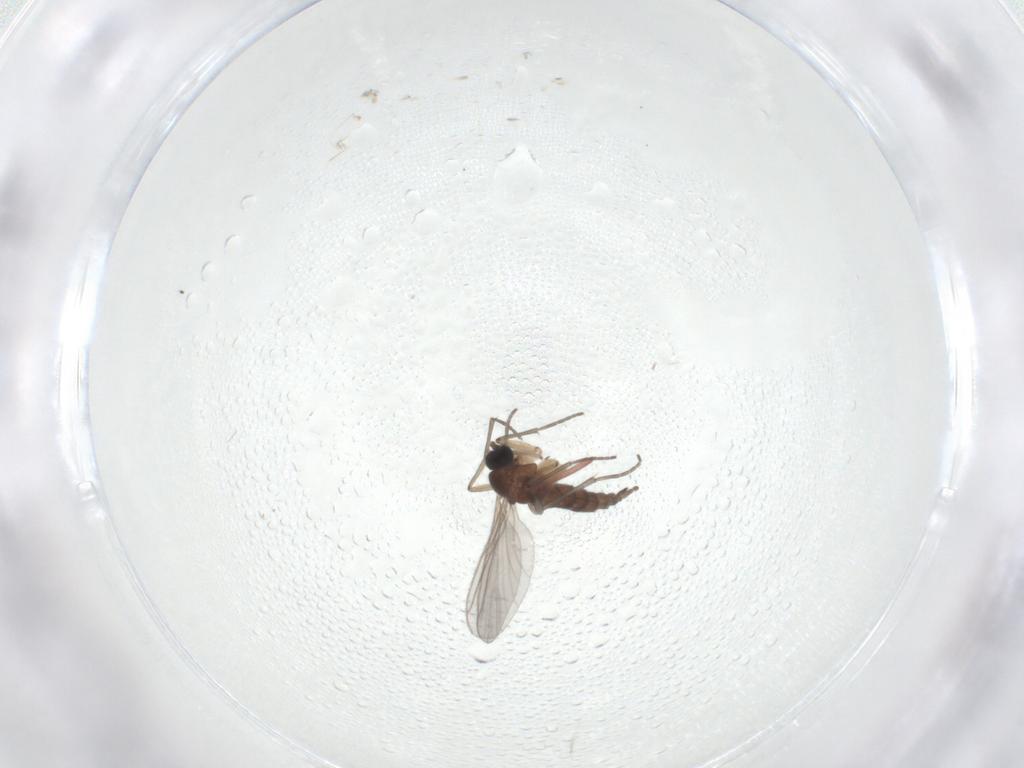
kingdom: Animalia
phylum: Arthropoda
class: Insecta
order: Diptera
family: Sciaridae
